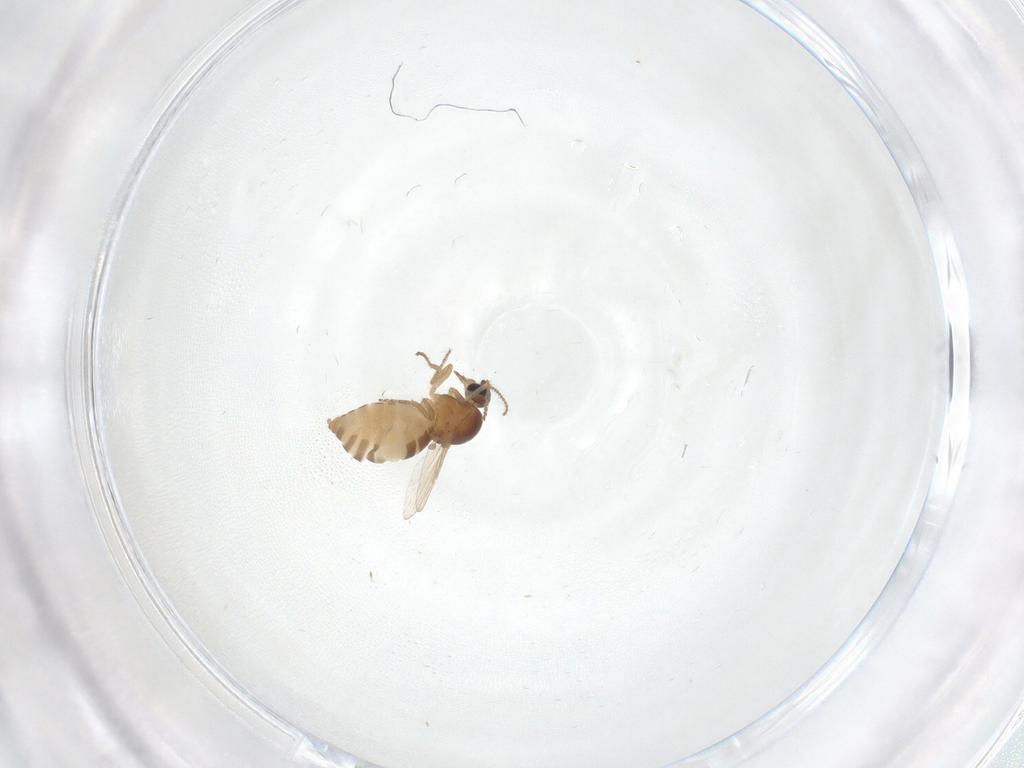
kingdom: Animalia
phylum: Arthropoda
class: Insecta
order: Diptera
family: Ceratopogonidae
